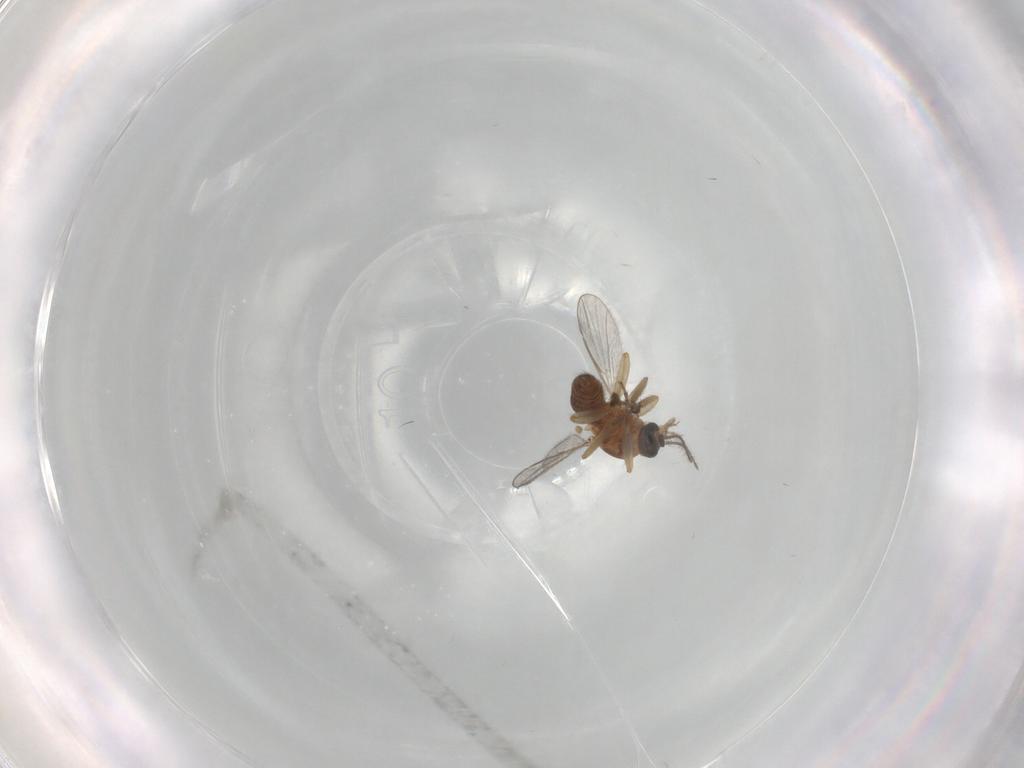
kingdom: Animalia
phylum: Arthropoda
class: Insecta
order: Diptera
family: Ceratopogonidae
